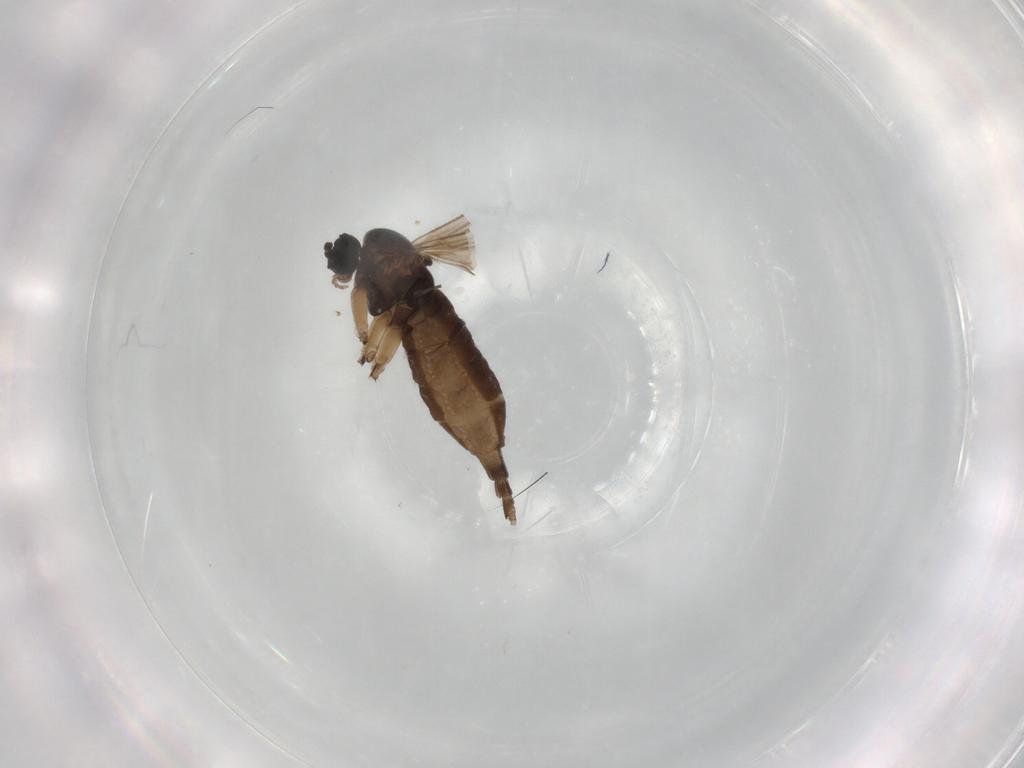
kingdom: Animalia
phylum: Arthropoda
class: Insecta
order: Diptera
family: Sciaridae
